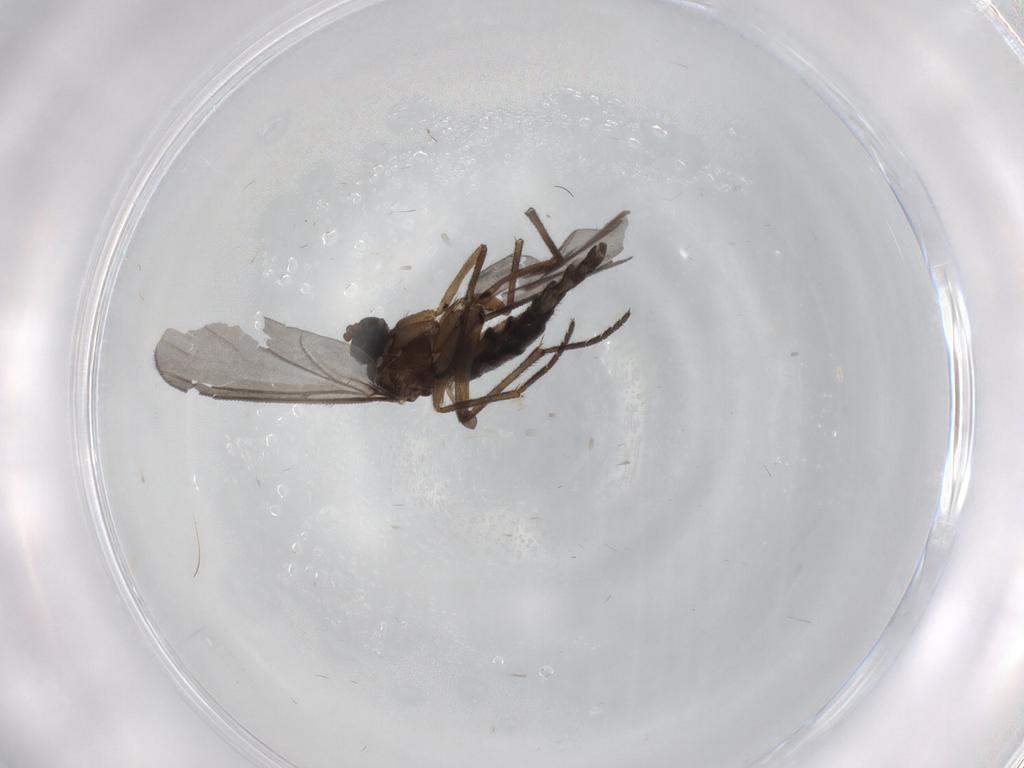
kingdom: Animalia
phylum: Arthropoda
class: Insecta
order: Diptera
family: Sciaridae
